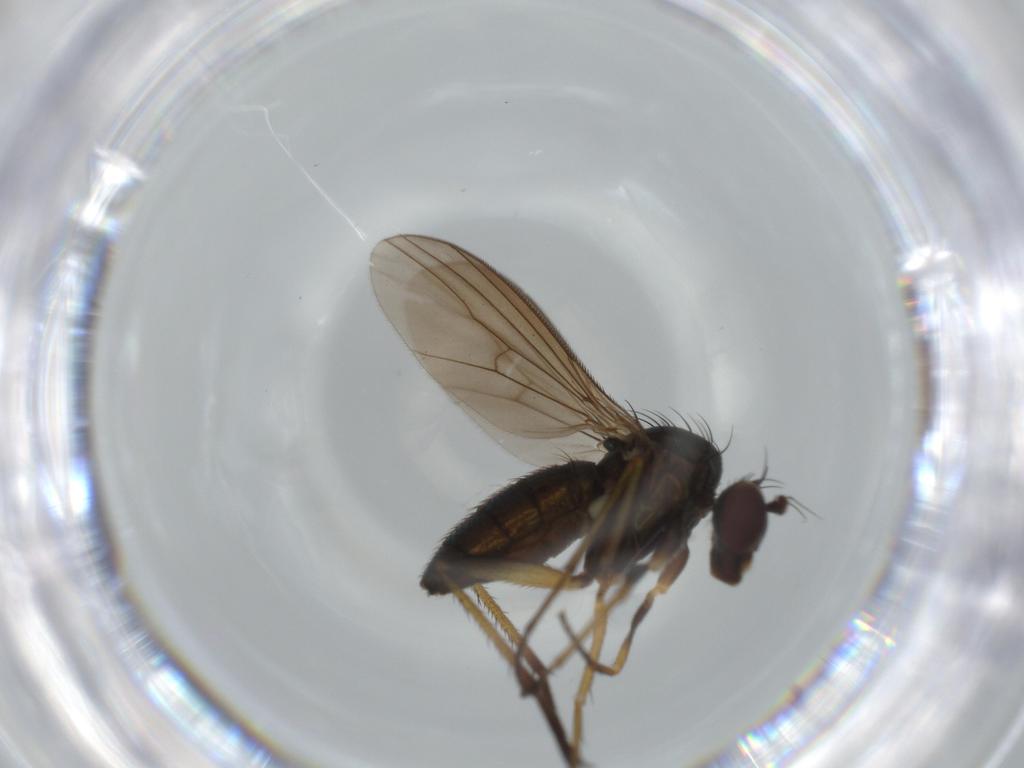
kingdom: Animalia
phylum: Arthropoda
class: Insecta
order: Diptera
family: Dolichopodidae
